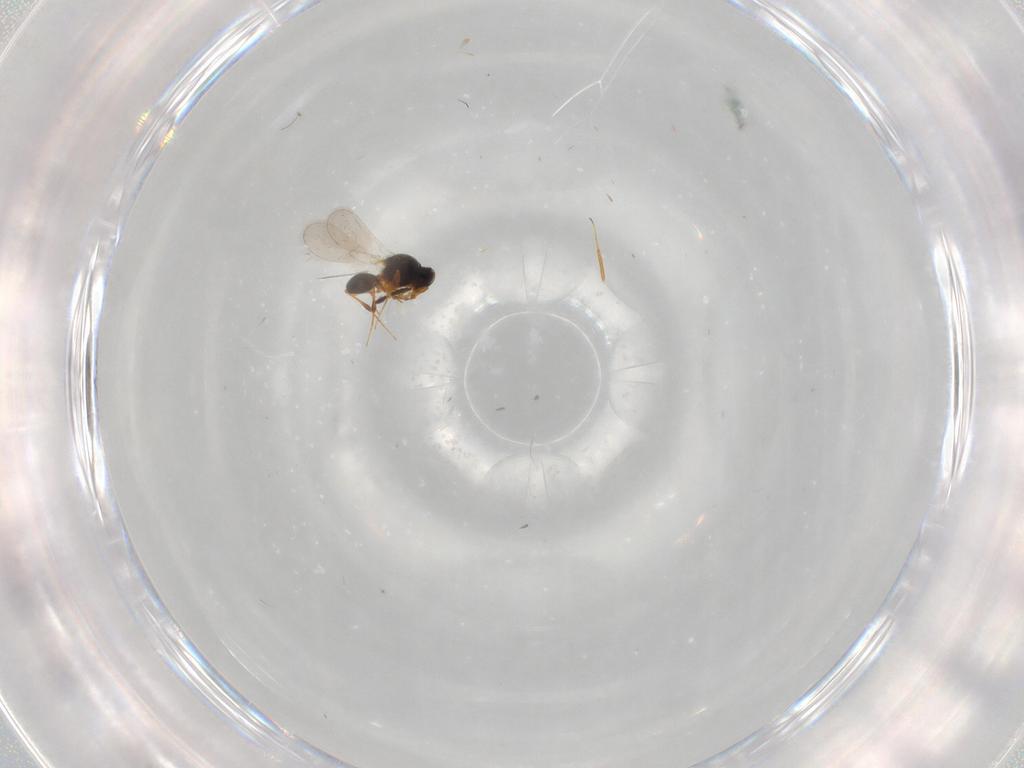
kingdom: Animalia
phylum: Arthropoda
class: Insecta
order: Hymenoptera
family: Platygastridae
